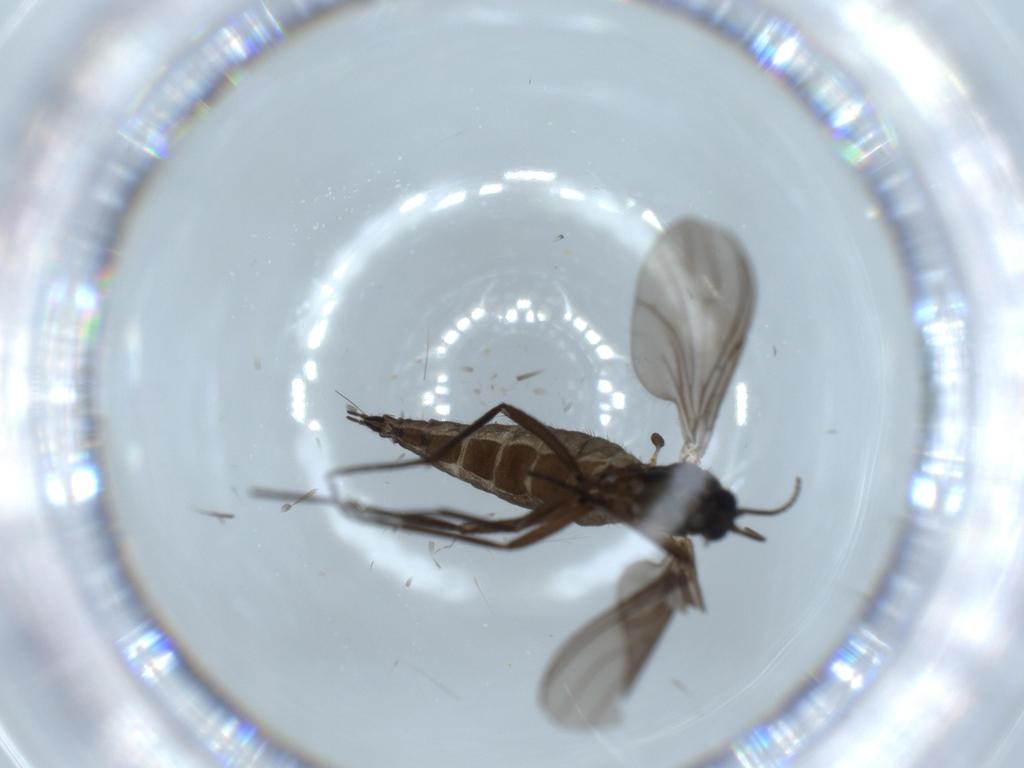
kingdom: Animalia
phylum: Arthropoda
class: Insecta
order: Diptera
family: Sciaridae
